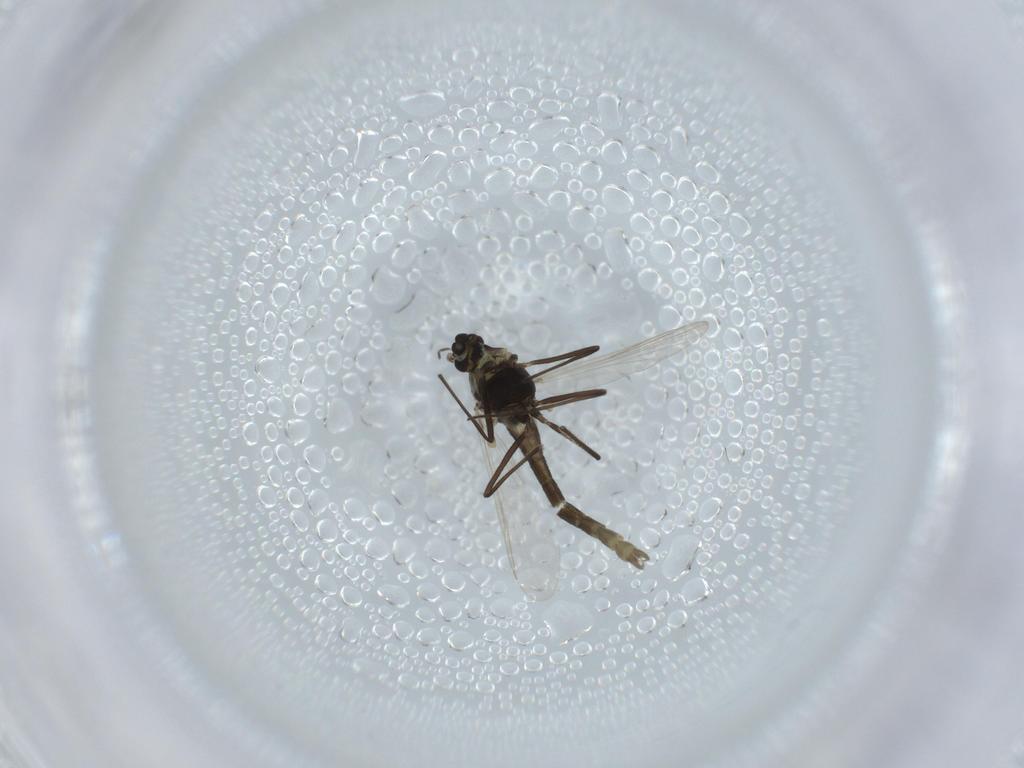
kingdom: Animalia
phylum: Arthropoda
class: Insecta
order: Diptera
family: Chironomidae
